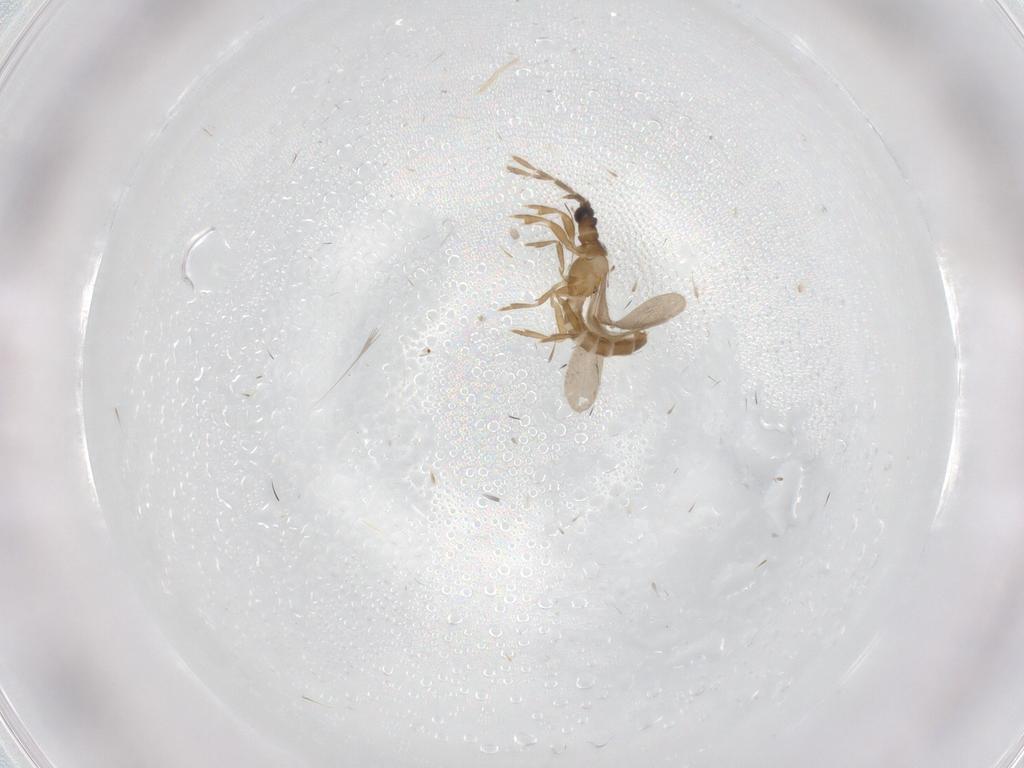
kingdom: Animalia
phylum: Arthropoda
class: Insecta
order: Hemiptera
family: Enicocephalidae
